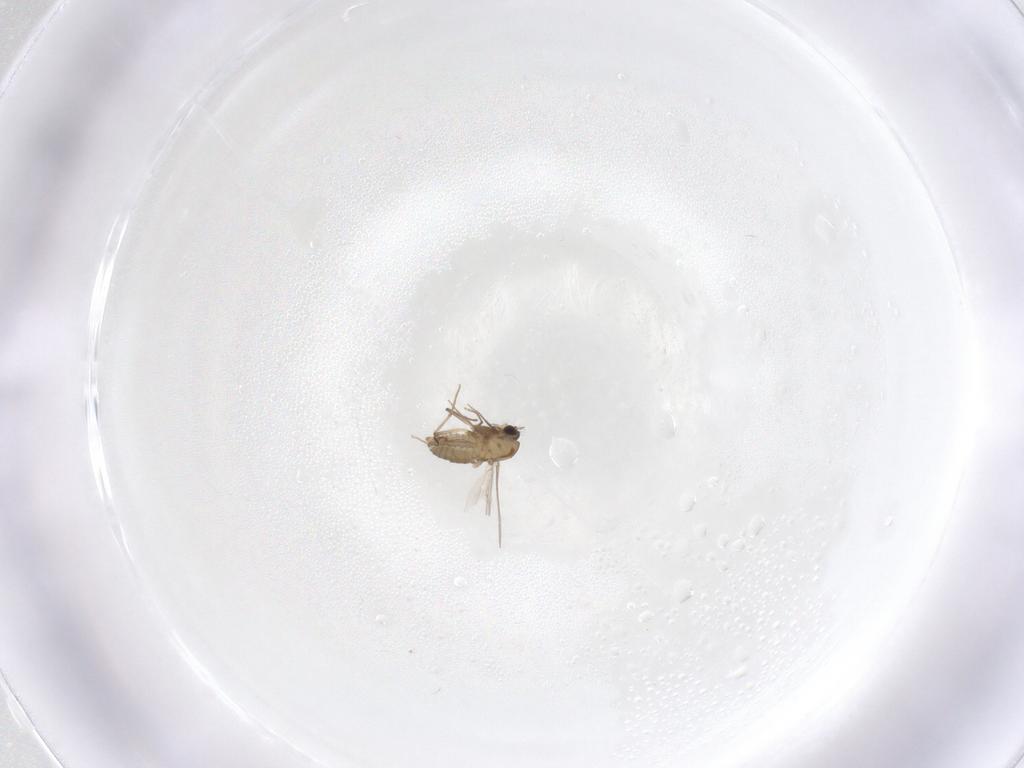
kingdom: Animalia
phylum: Arthropoda
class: Insecta
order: Diptera
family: Chironomidae
